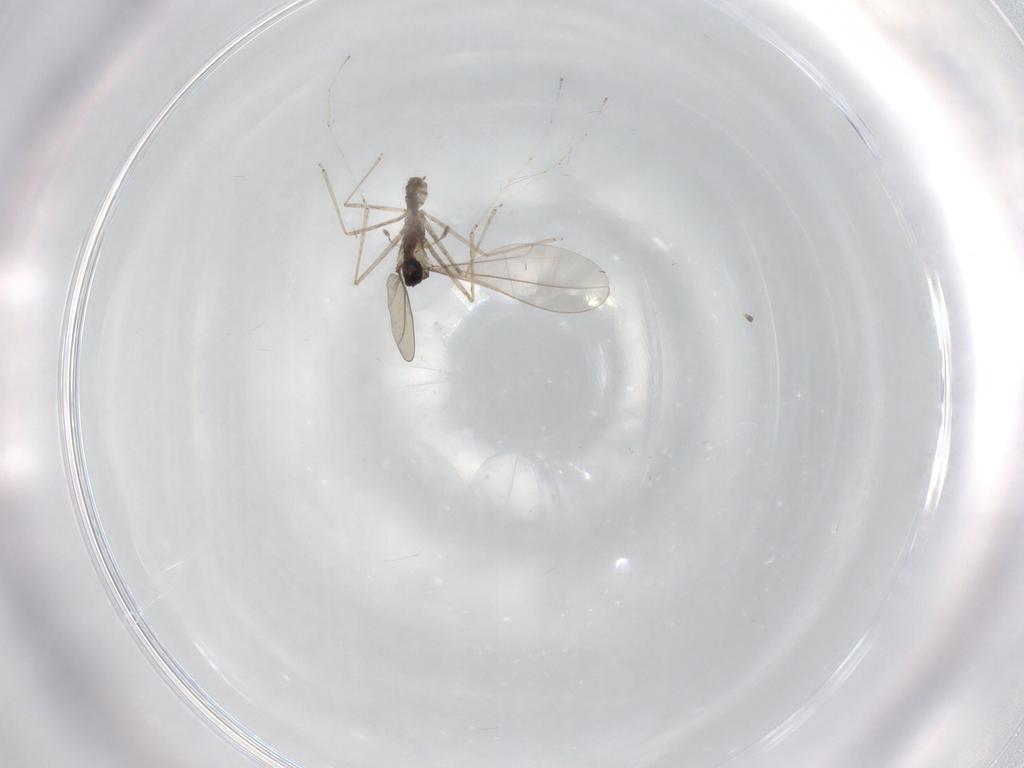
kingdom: Animalia
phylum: Arthropoda
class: Insecta
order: Diptera
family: Cecidomyiidae
